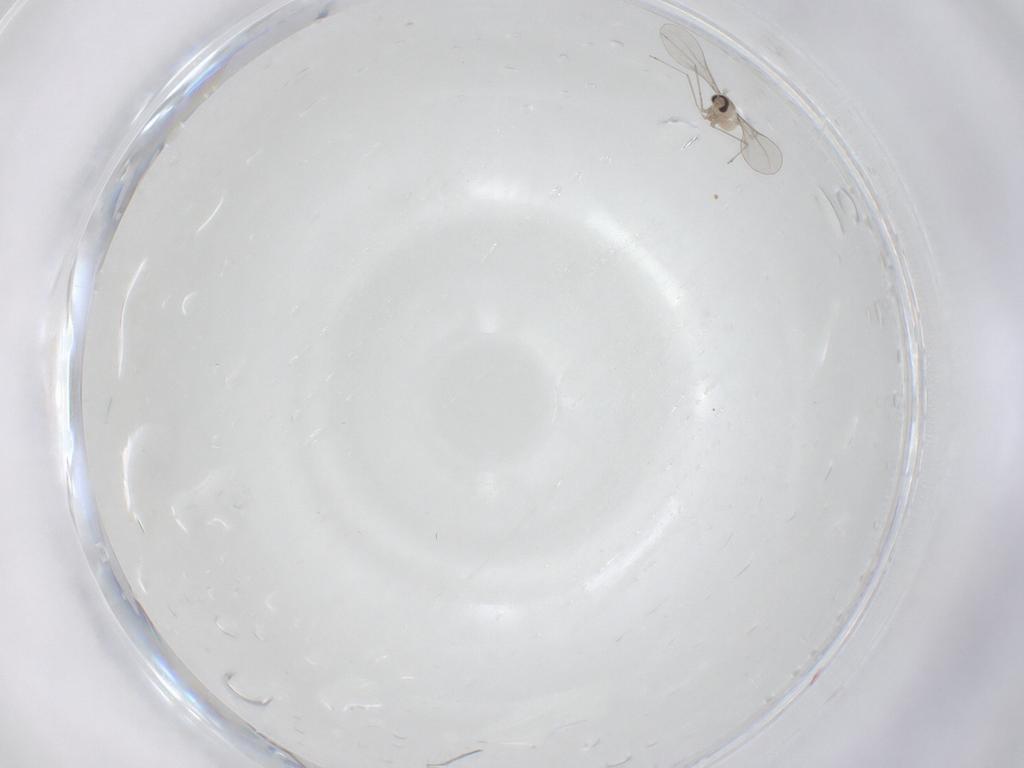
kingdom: Animalia
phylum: Arthropoda
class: Insecta
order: Diptera
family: Cecidomyiidae
